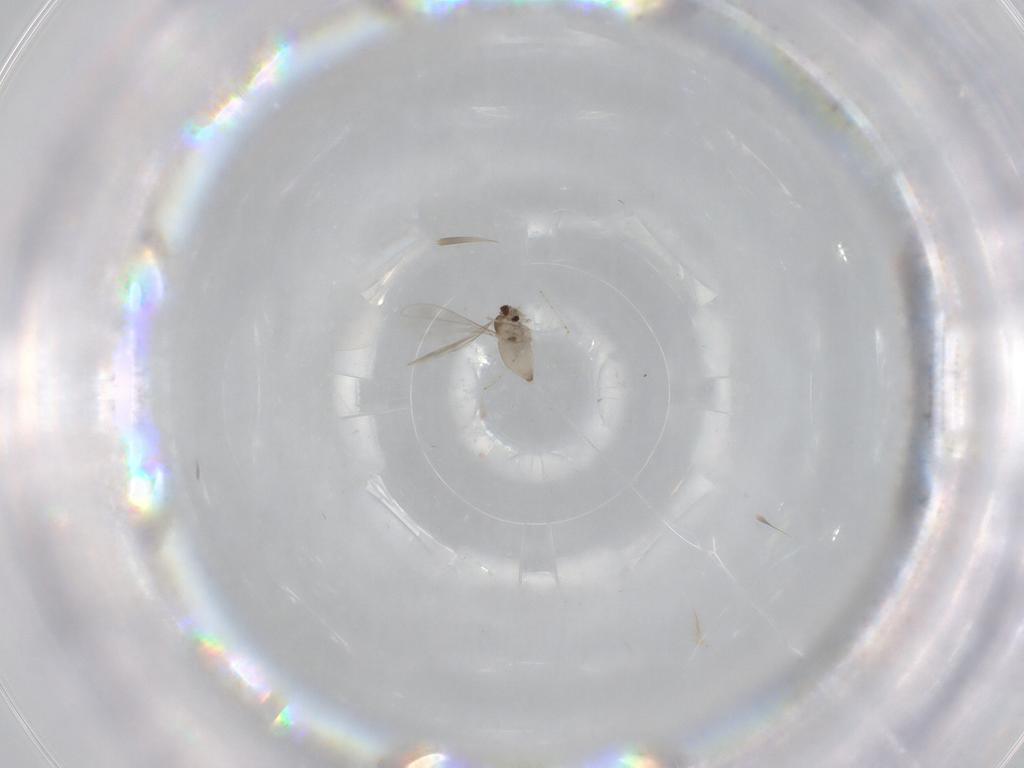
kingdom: Animalia
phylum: Arthropoda
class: Insecta
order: Diptera
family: Cecidomyiidae
